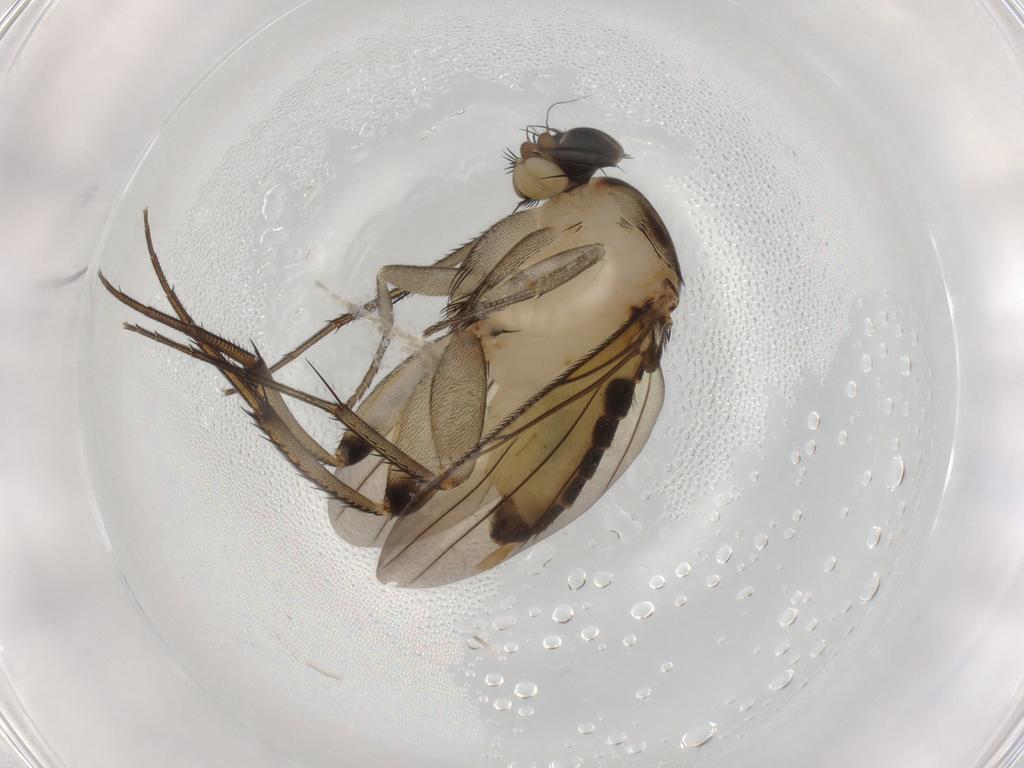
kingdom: Animalia
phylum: Arthropoda
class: Insecta
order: Diptera
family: Phoridae
